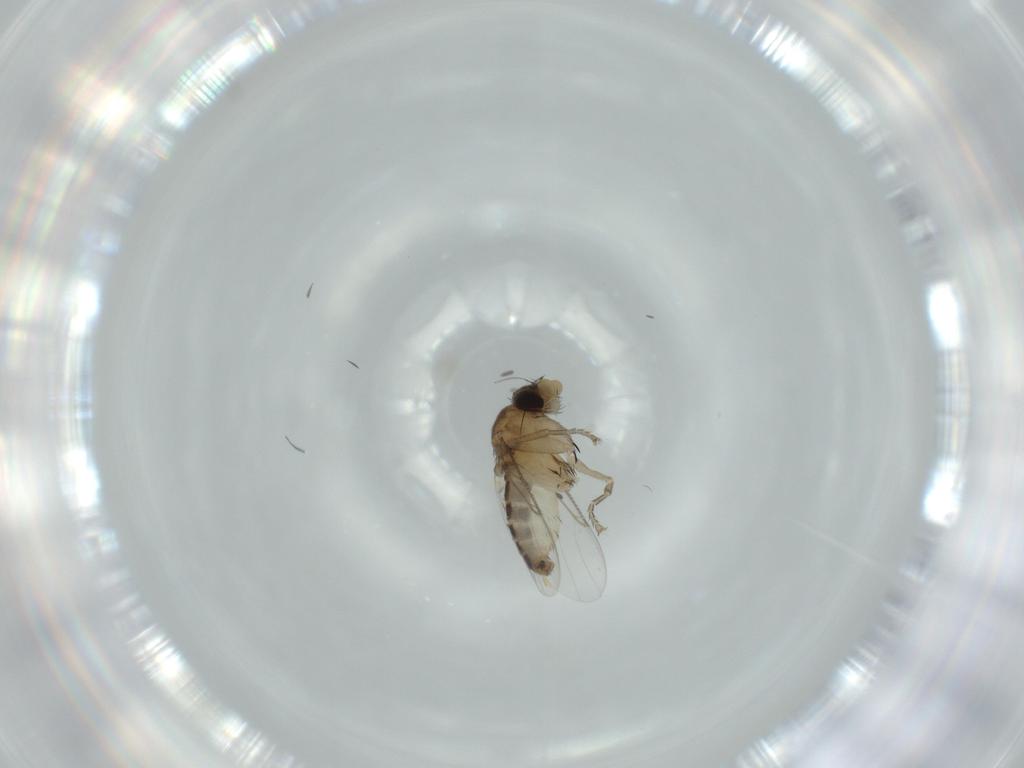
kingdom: Animalia
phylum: Arthropoda
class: Insecta
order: Diptera
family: Phoridae
